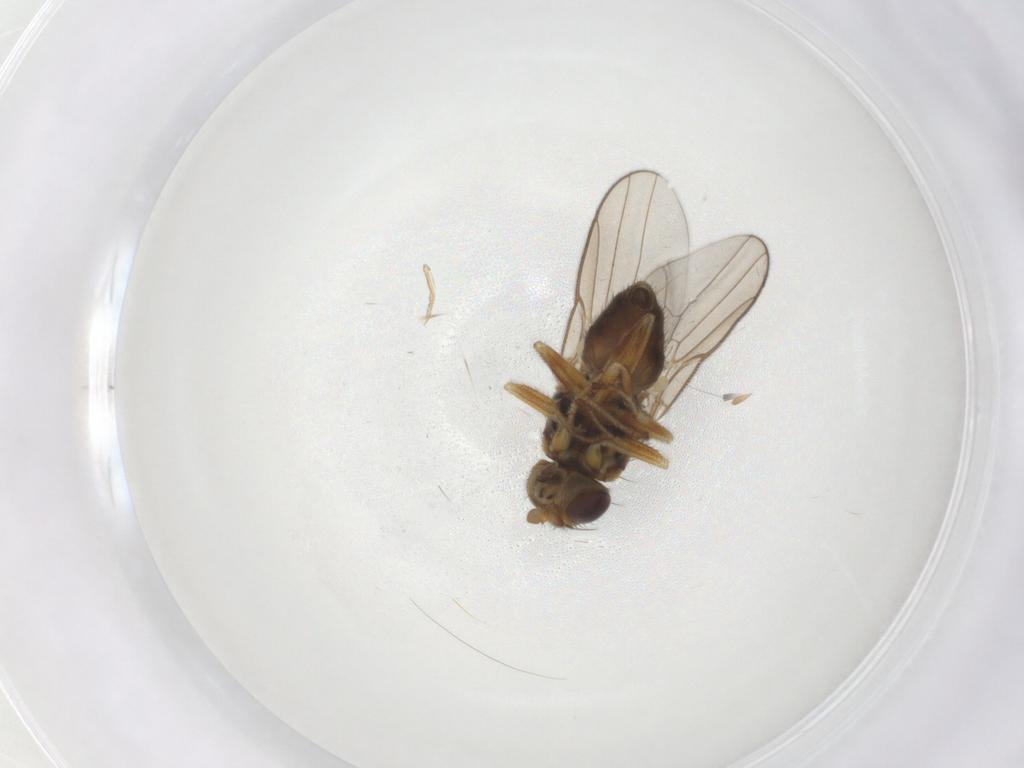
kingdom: Animalia
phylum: Arthropoda
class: Insecta
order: Diptera
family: Chloropidae
